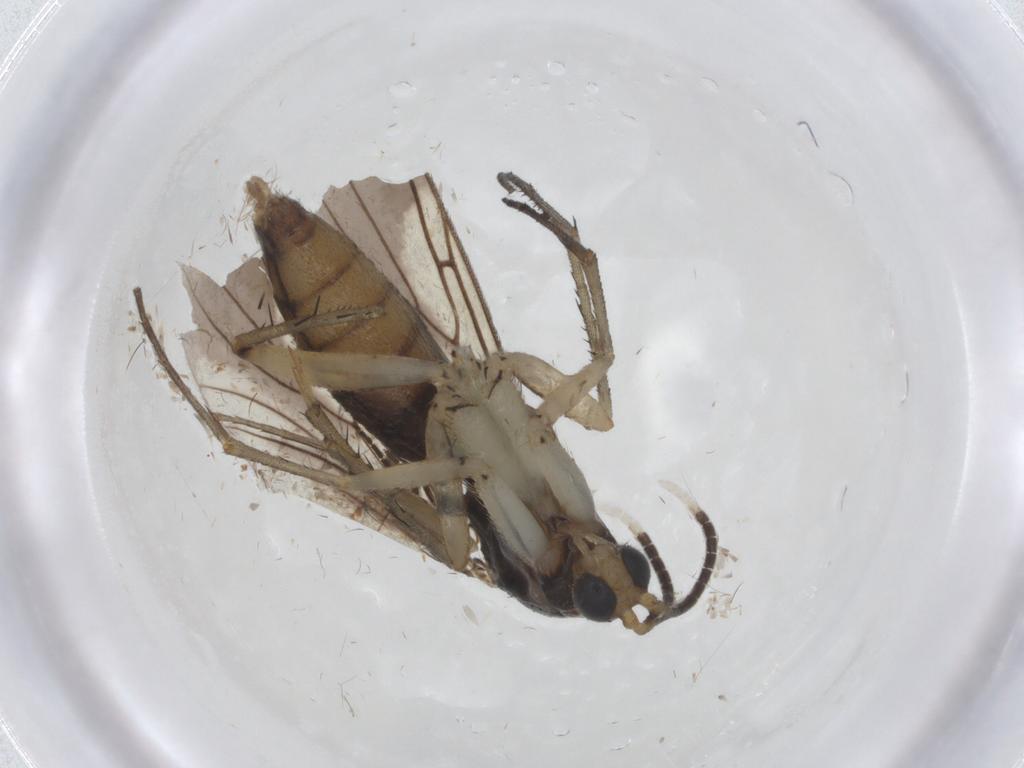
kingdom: Animalia
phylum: Arthropoda
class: Insecta
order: Diptera
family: Mycetophilidae
